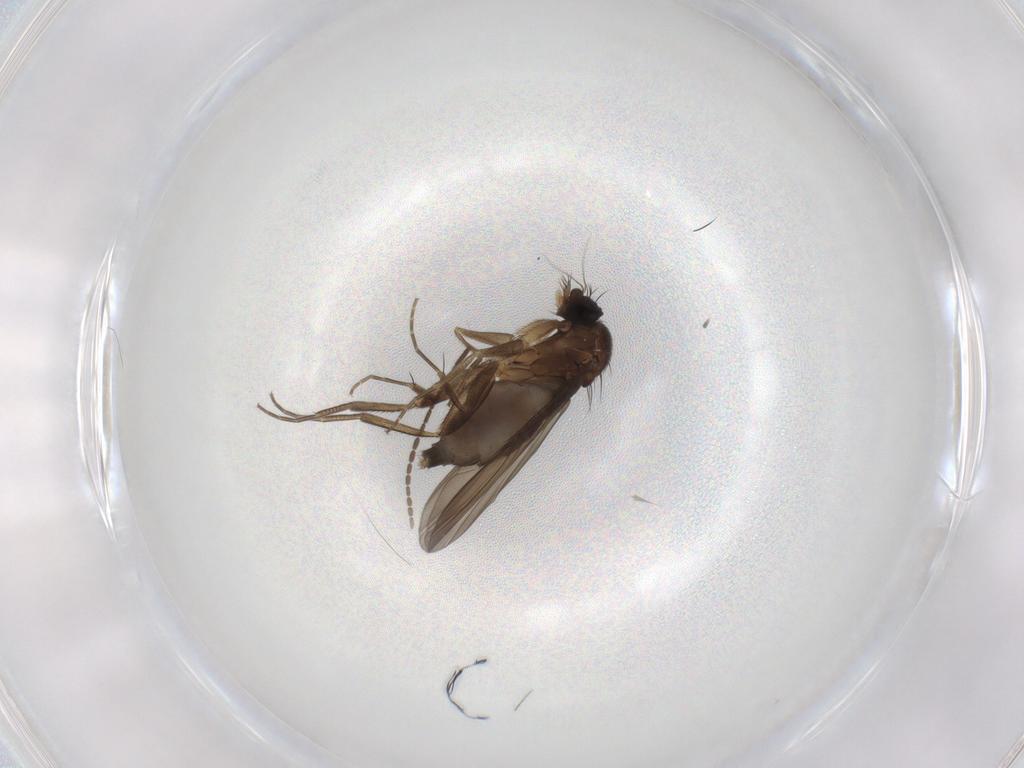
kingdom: Animalia
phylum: Arthropoda
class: Insecta
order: Diptera
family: Phoridae
